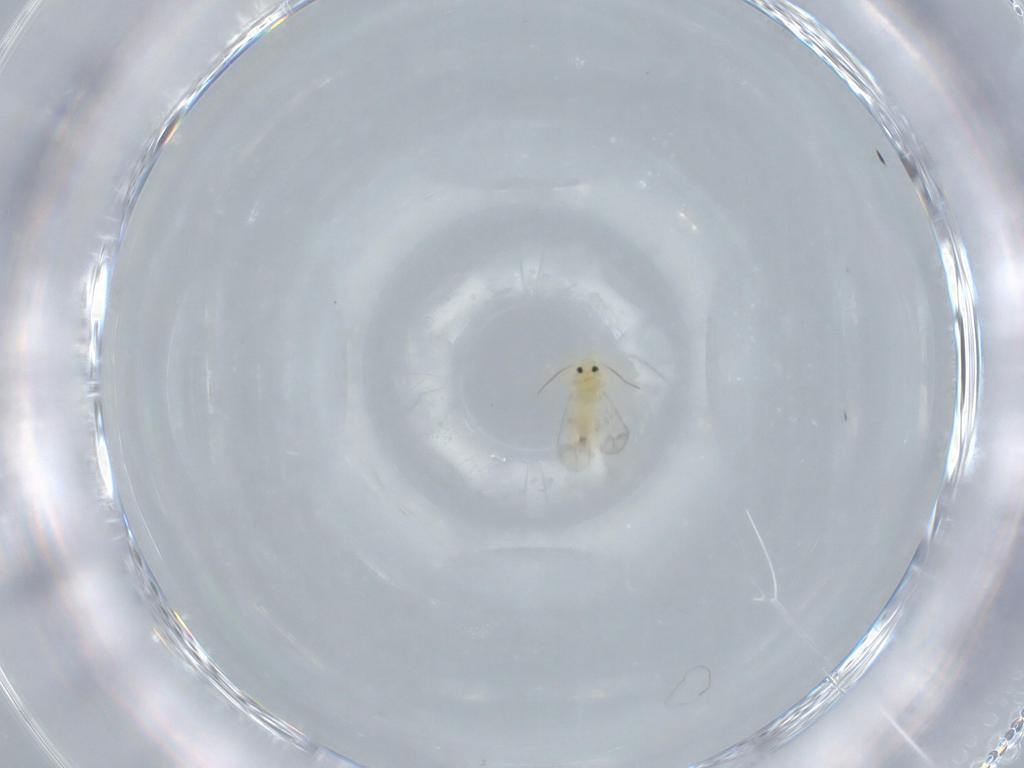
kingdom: Animalia
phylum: Arthropoda
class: Insecta
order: Hemiptera
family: Aleyrodidae
